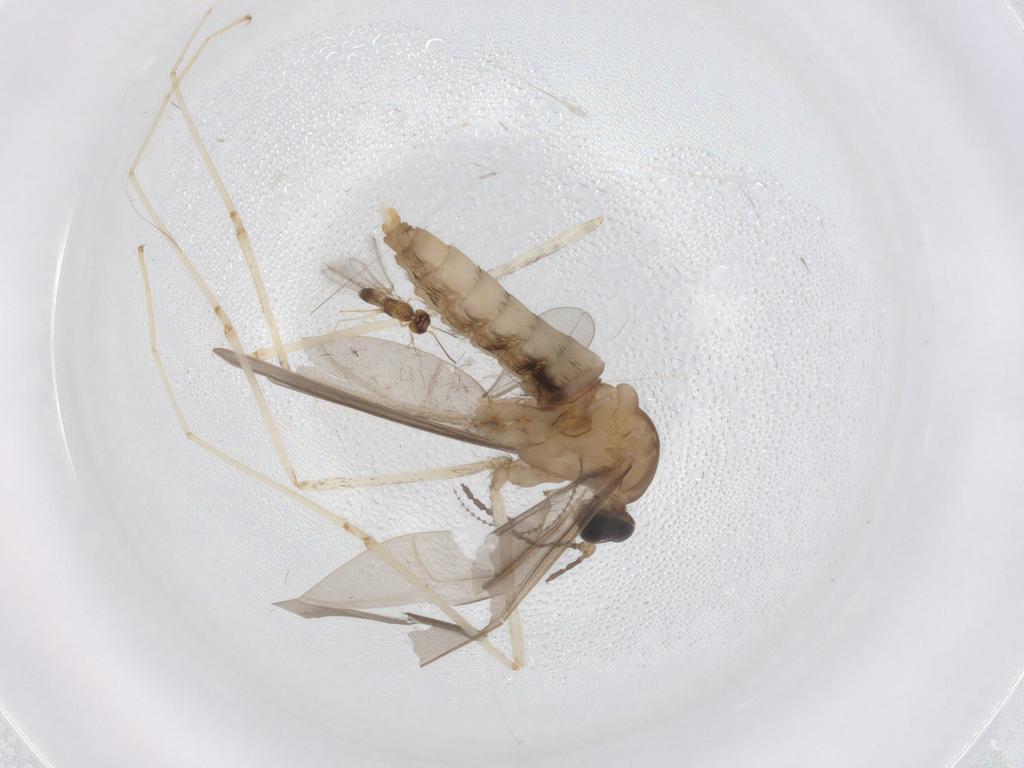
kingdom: Animalia
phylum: Arthropoda
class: Insecta
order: Diptera
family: Cecidomyiidae
